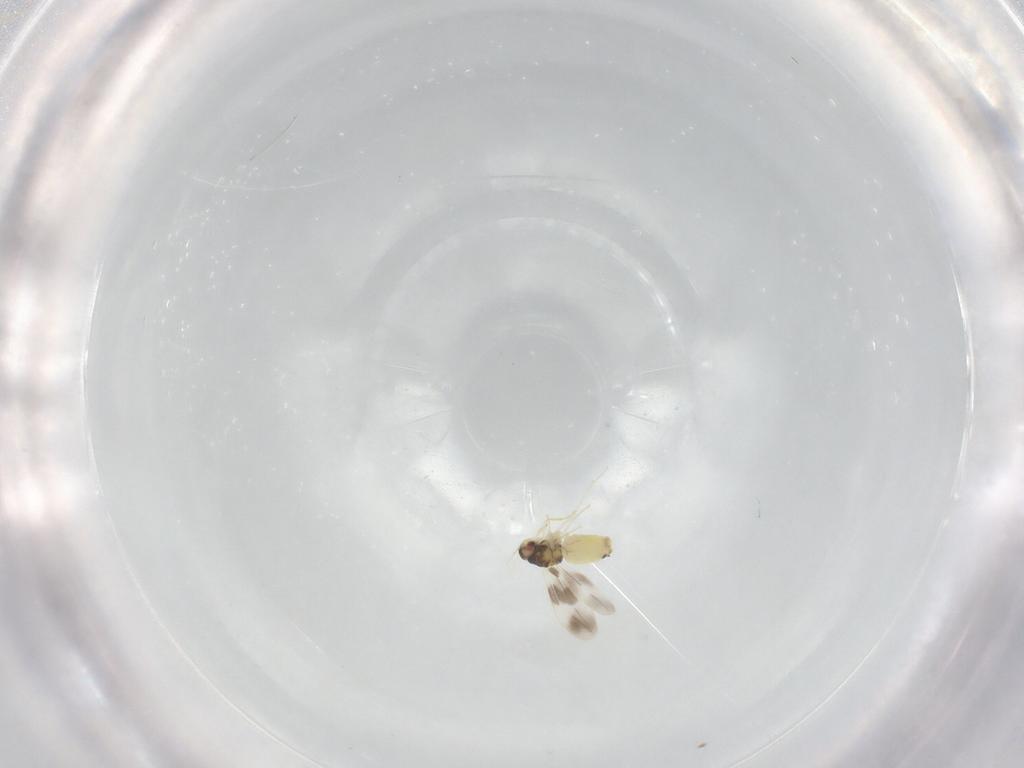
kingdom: Animalia
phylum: Arthropoda
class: Insecta
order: Hemiptera
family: Aleyrodidae
